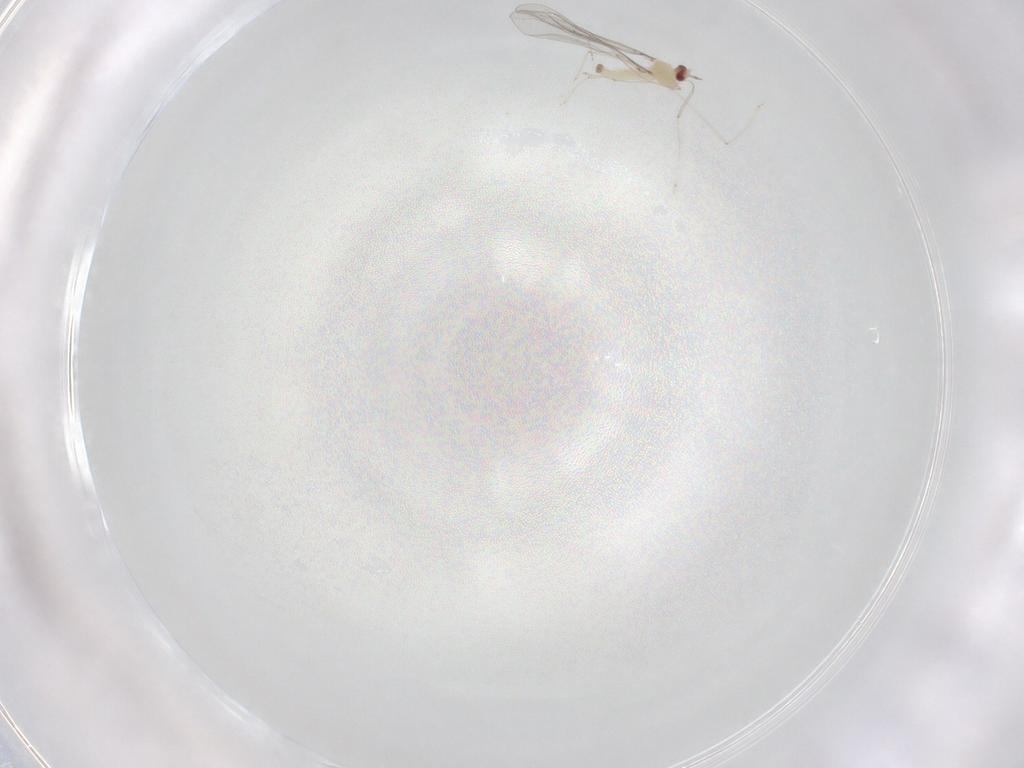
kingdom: Animalia
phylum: Arthropoda
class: Insecta
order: Diptera
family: Cecidomyiidae
